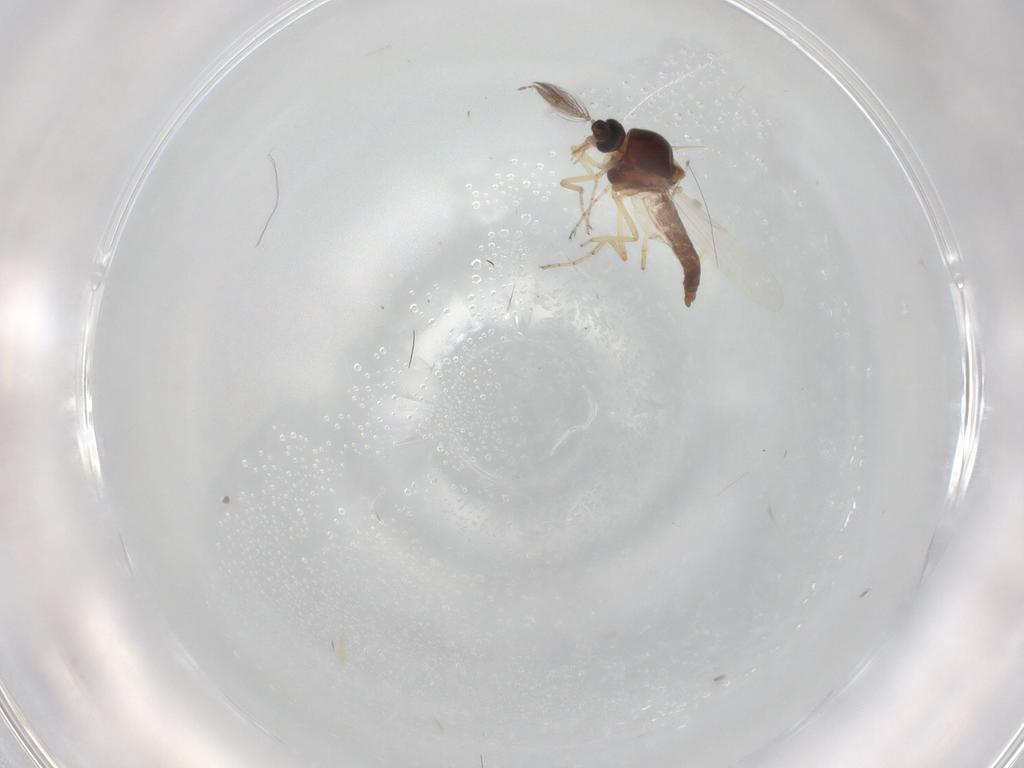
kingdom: Animalia
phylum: Arthropoda
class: Insecta
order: Diptera
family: Ceratopogonidae
